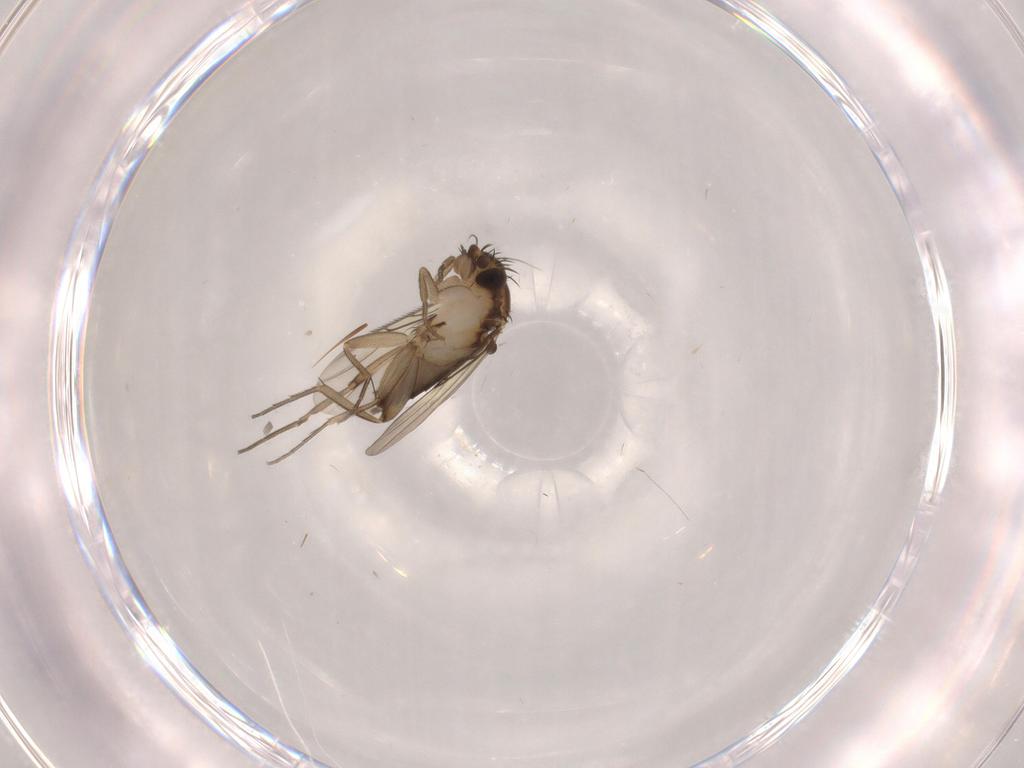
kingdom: Animalia
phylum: Arthropoda
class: Insecta
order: Diptera
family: Phoridae
